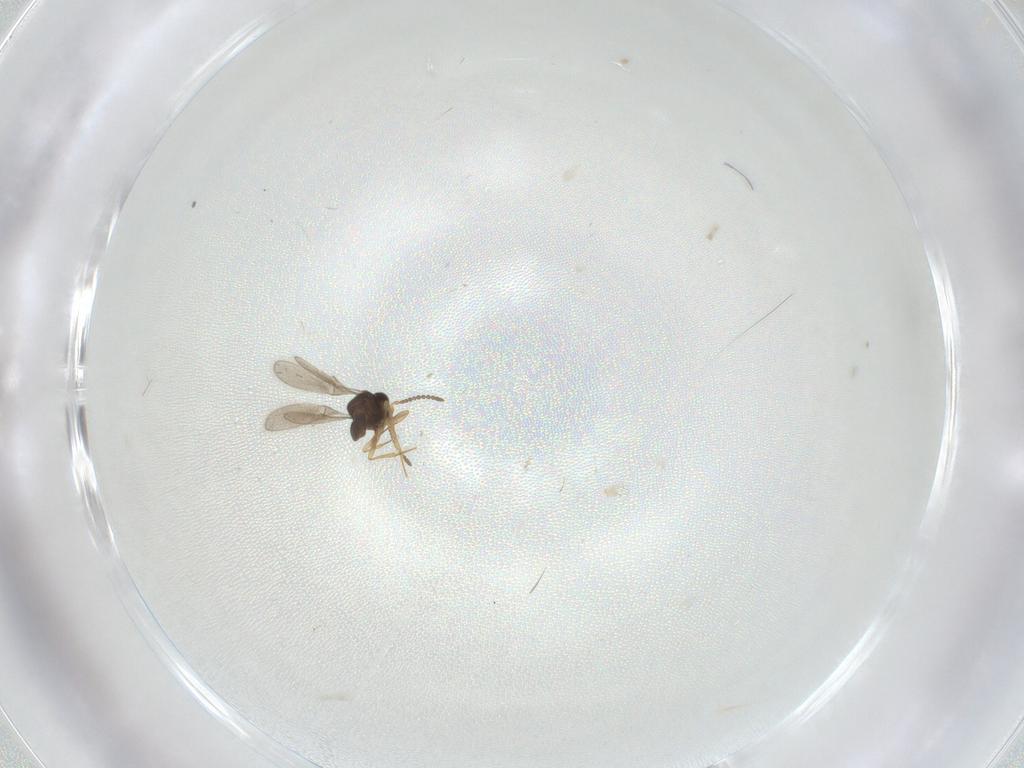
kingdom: Animalia
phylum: Arthropoda
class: Insecta
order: Hymenoptera
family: Scelionidae
